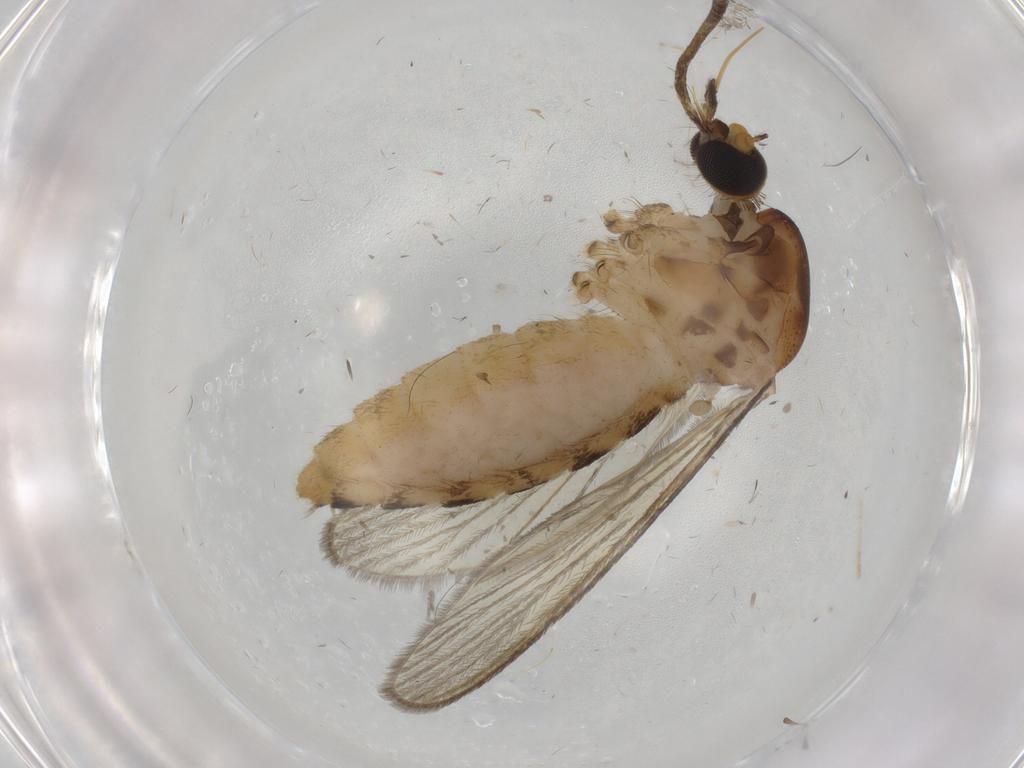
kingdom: Animalia
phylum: Arthropoda
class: Insecta
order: Diptera
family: Culicidae
